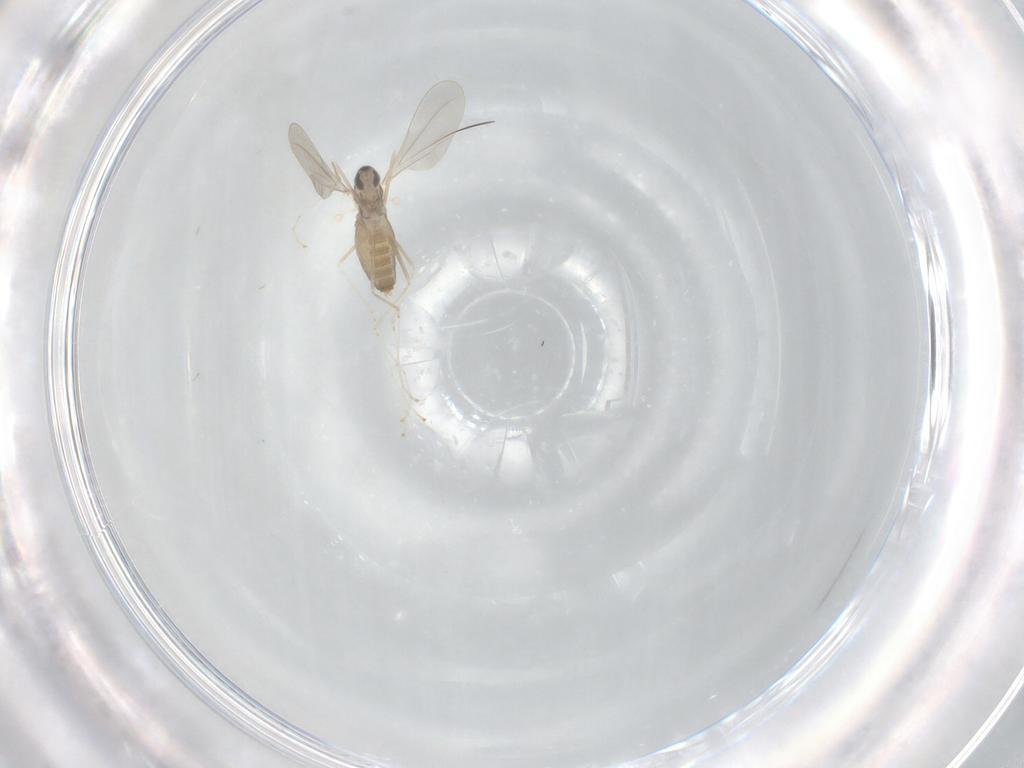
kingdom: Animalia
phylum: Arthropoda
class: Insecta
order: Diptera
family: Cecidomyiidae
